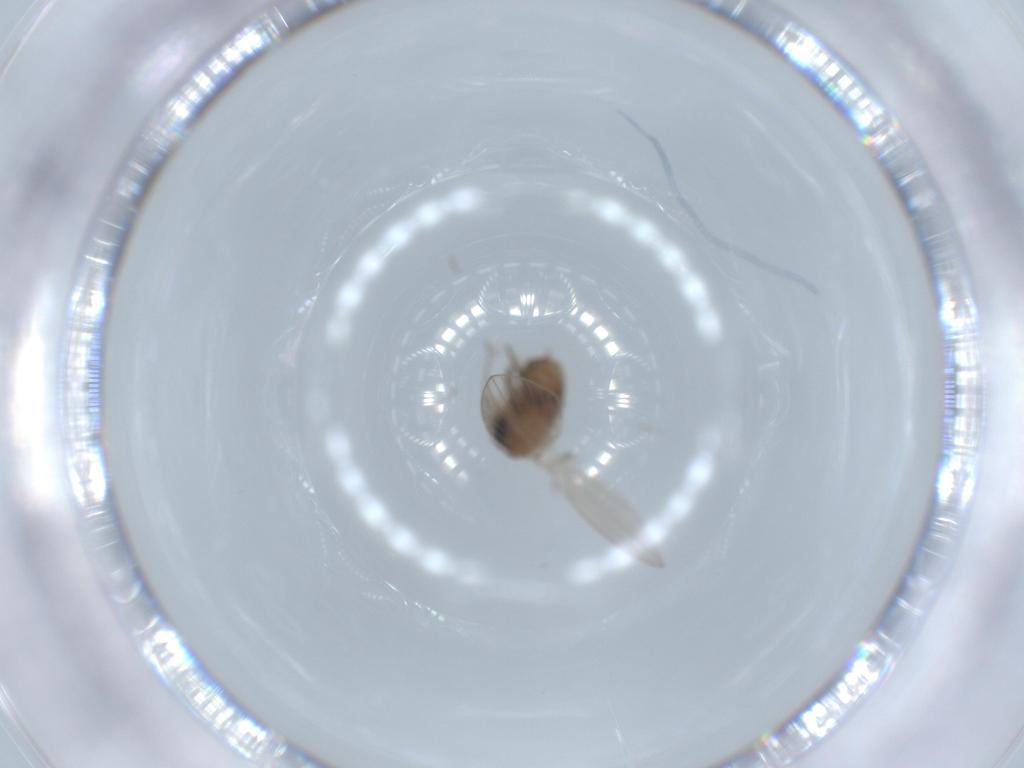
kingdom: Animalia
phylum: Arthropoda
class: Insecta
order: Diptera
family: Psychodidae
